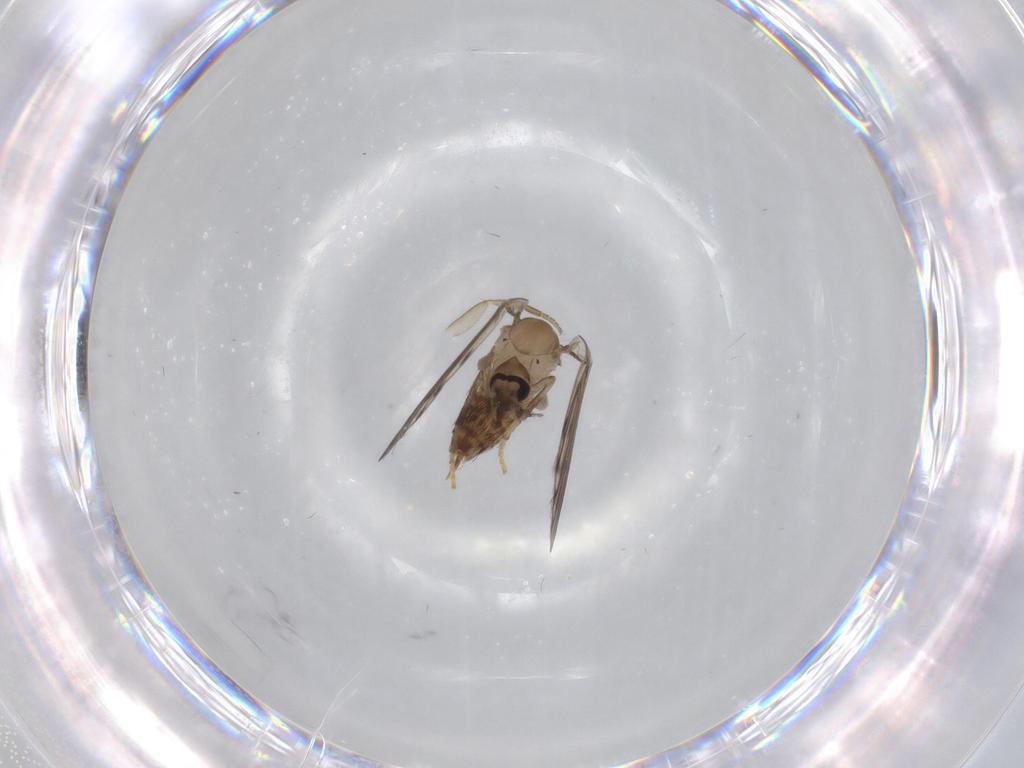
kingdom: Animalia
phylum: Arthropoda
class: Insecta
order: Diptera
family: Psychodidae
